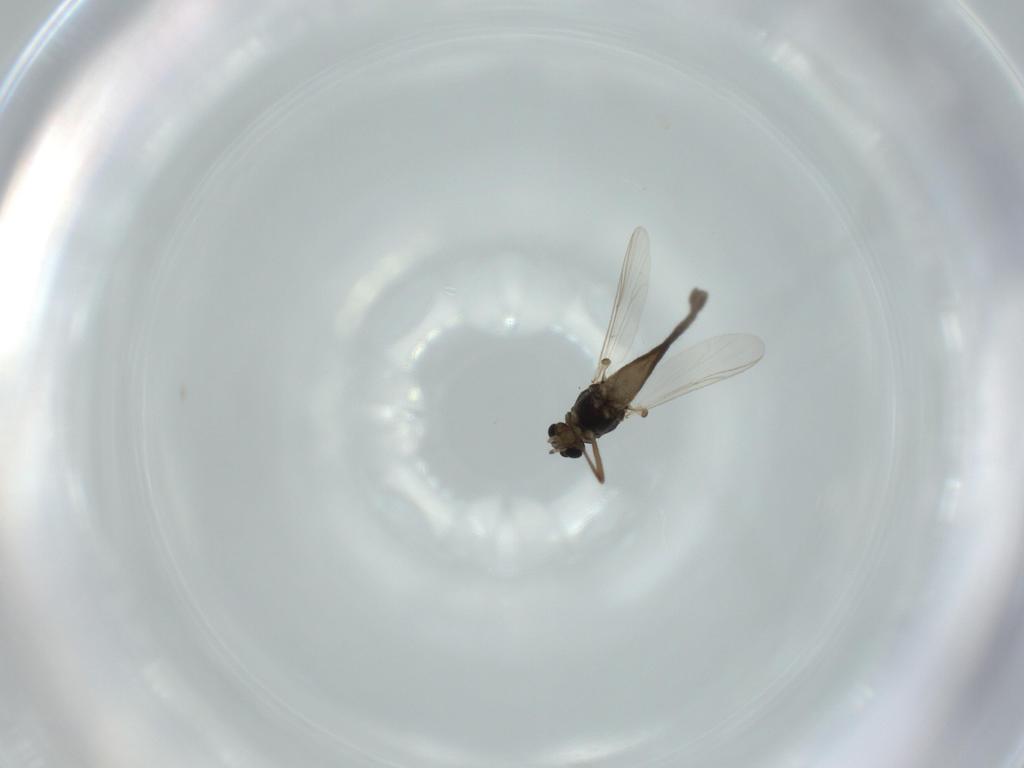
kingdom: Animalia
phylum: Arthropoda
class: Insecta
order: Diptera
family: Chironomidae
